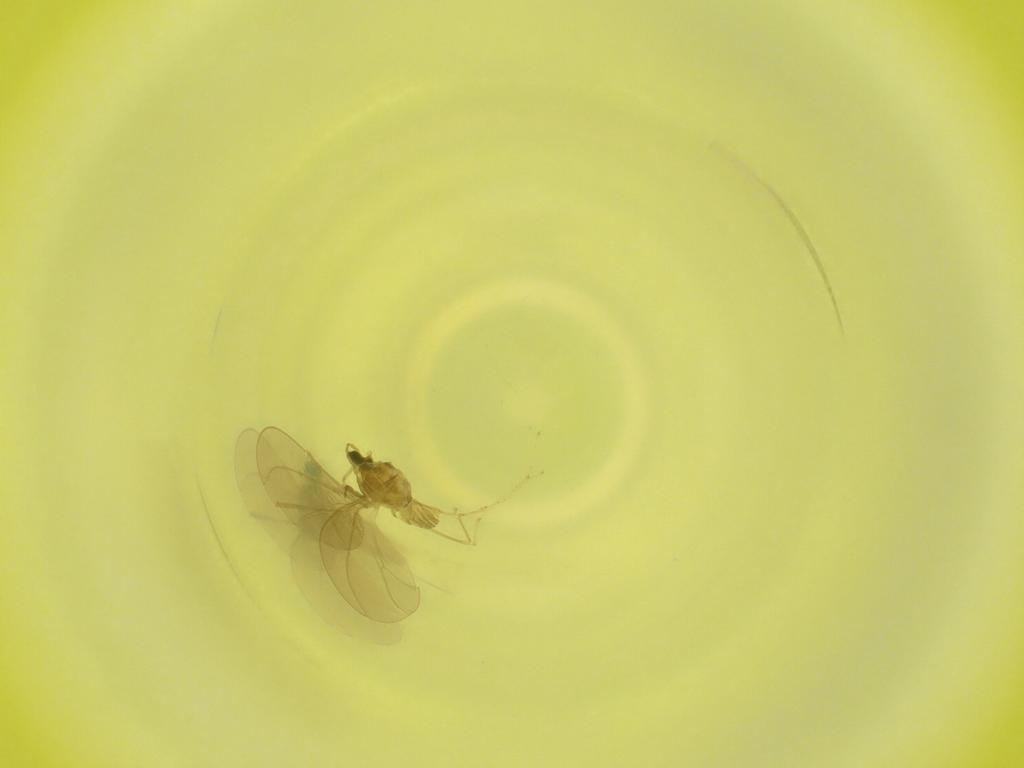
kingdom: Animalia
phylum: Arthropoda
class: Insecta
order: Diptera
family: Cecidomyiidae
